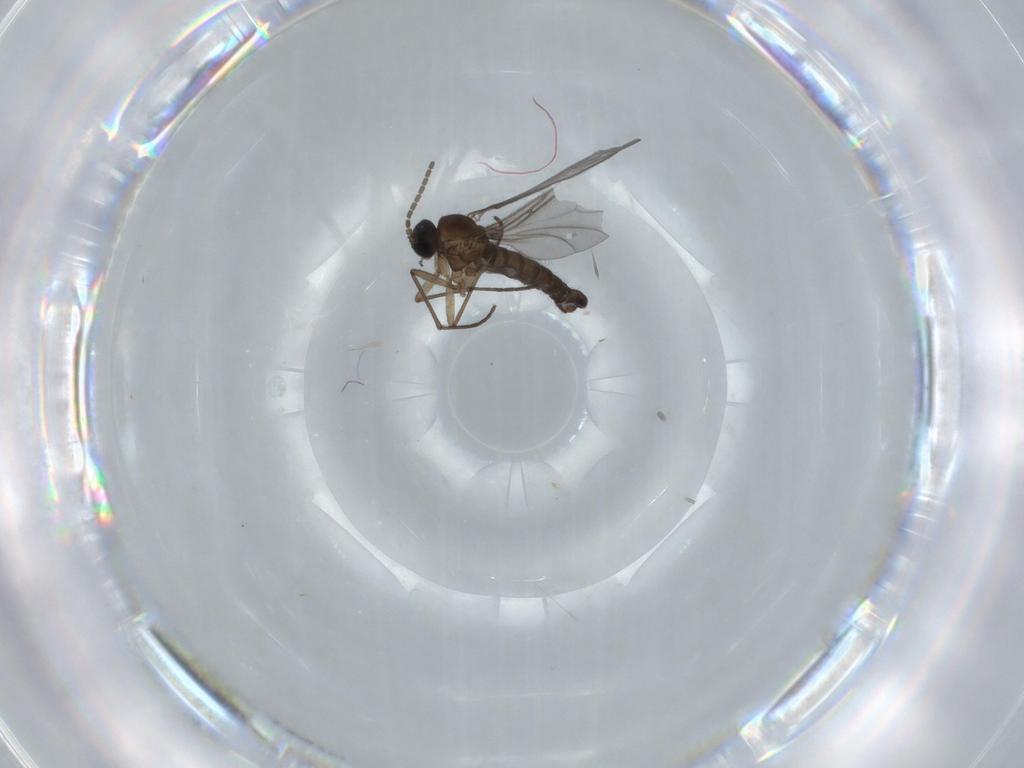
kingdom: Animalia
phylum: Arthropoda
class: Insecta
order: Diptera
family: Sciaridae
